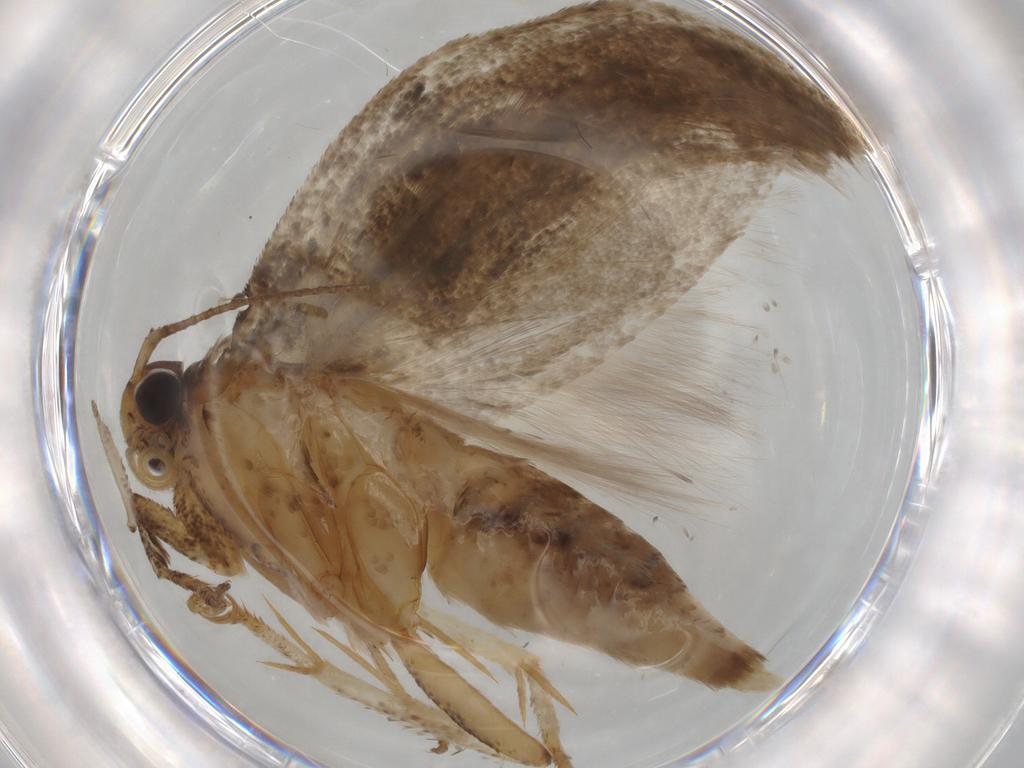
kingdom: Animalia
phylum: Arthropoda
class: Insecta
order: Lepidoptera
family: Gelechiidae
